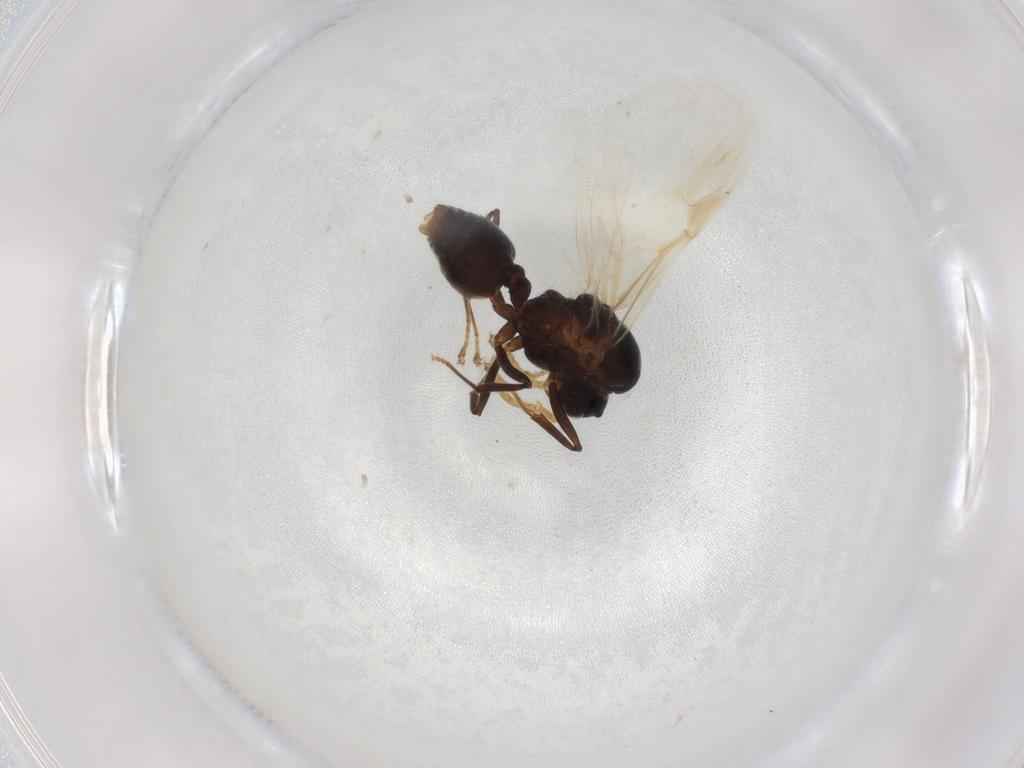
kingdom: Animalia
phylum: Arthropoda
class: Insecta
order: Hymenoptera
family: Formicidae
